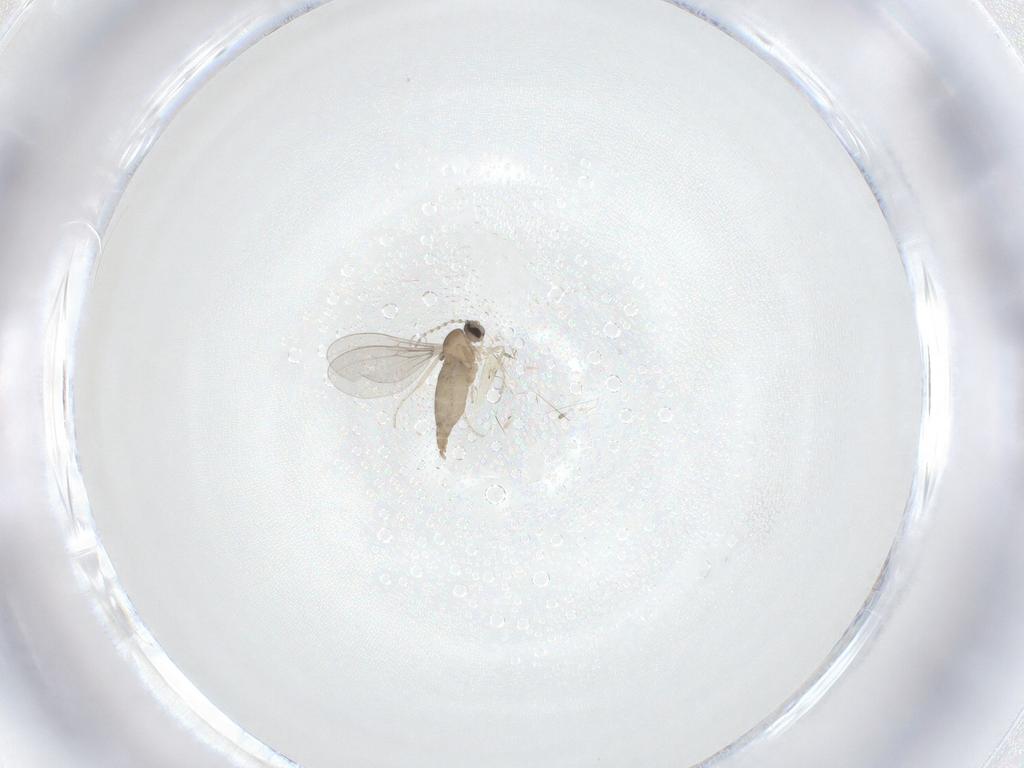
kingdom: Animalia
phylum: Arthropoda
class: Insecta
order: Diptera
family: Cecidomyiidae
